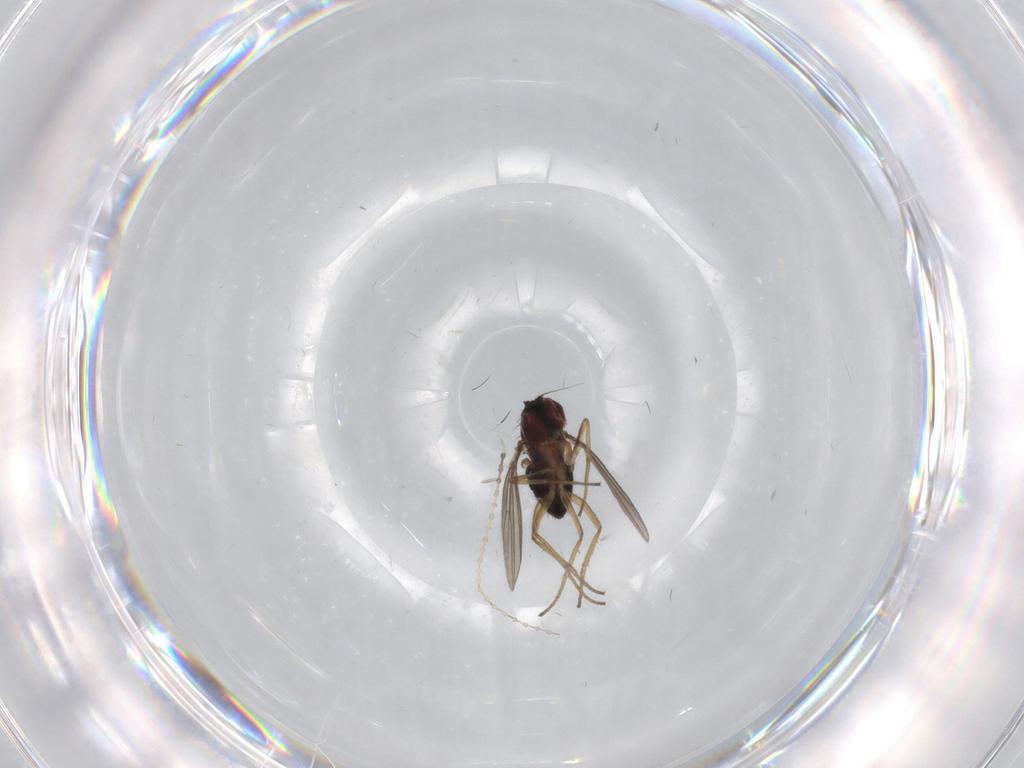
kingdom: Animalia
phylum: Arthropoda
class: Insecta
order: Diptera
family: Dolichopodidae
